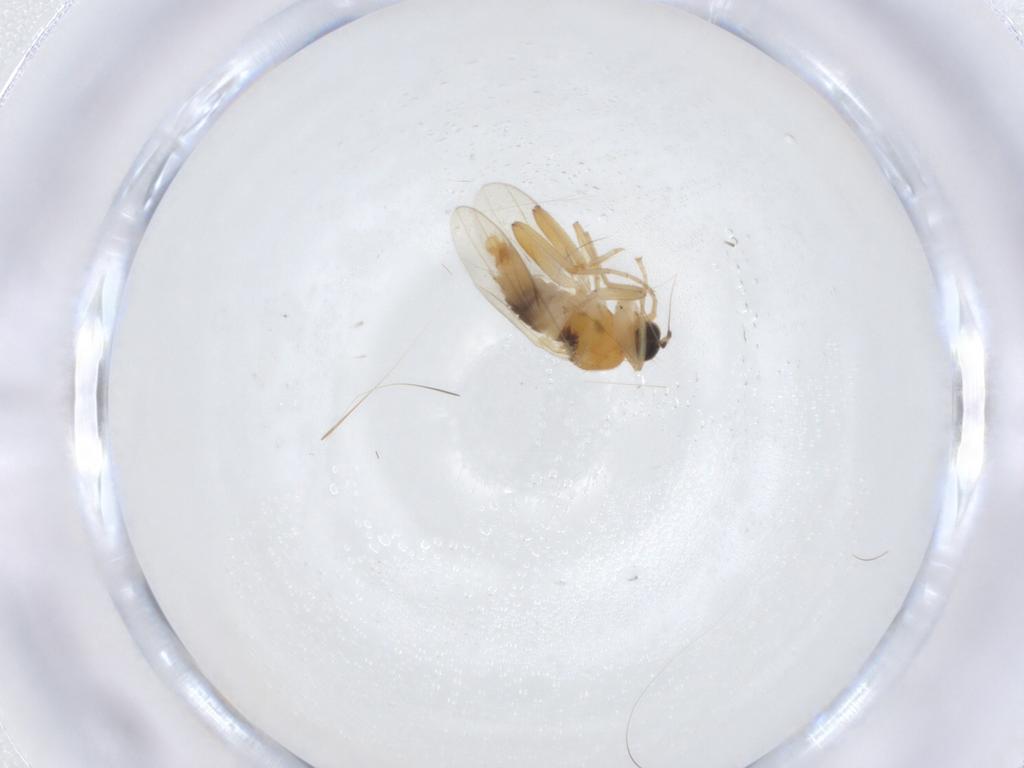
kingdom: Animalia
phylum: Arthropoda
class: Insecta
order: Diptera
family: Hybotidae
